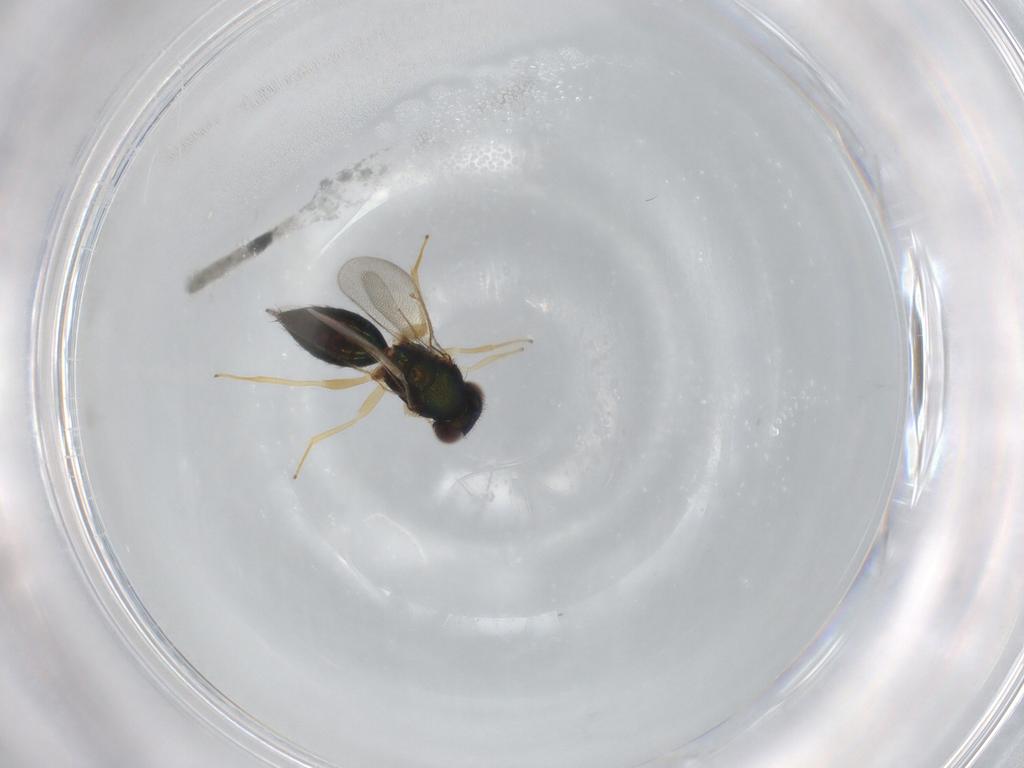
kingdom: Animalia
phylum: Arthropoda
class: Insecta
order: Hymenoptera
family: Eulophidae
